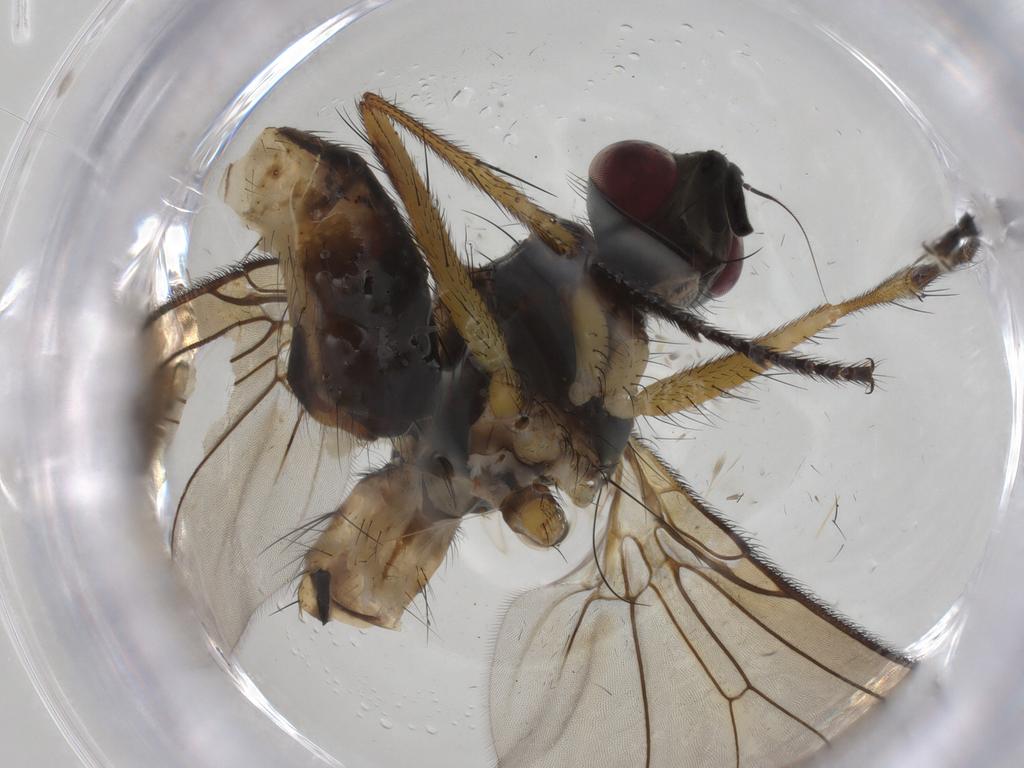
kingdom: Animalia
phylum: Arthropoda
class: Insecta
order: Diptera
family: Muscidae
